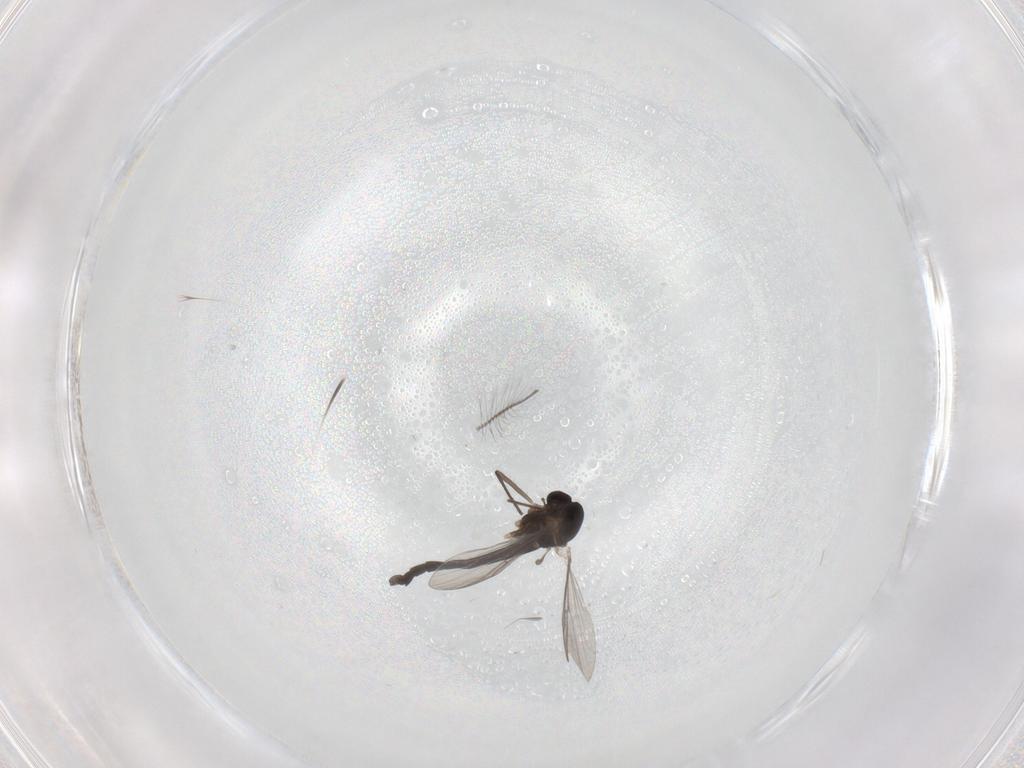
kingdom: Animalia
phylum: Arthropoda
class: Insecta
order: Diptera
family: Chironomidae
